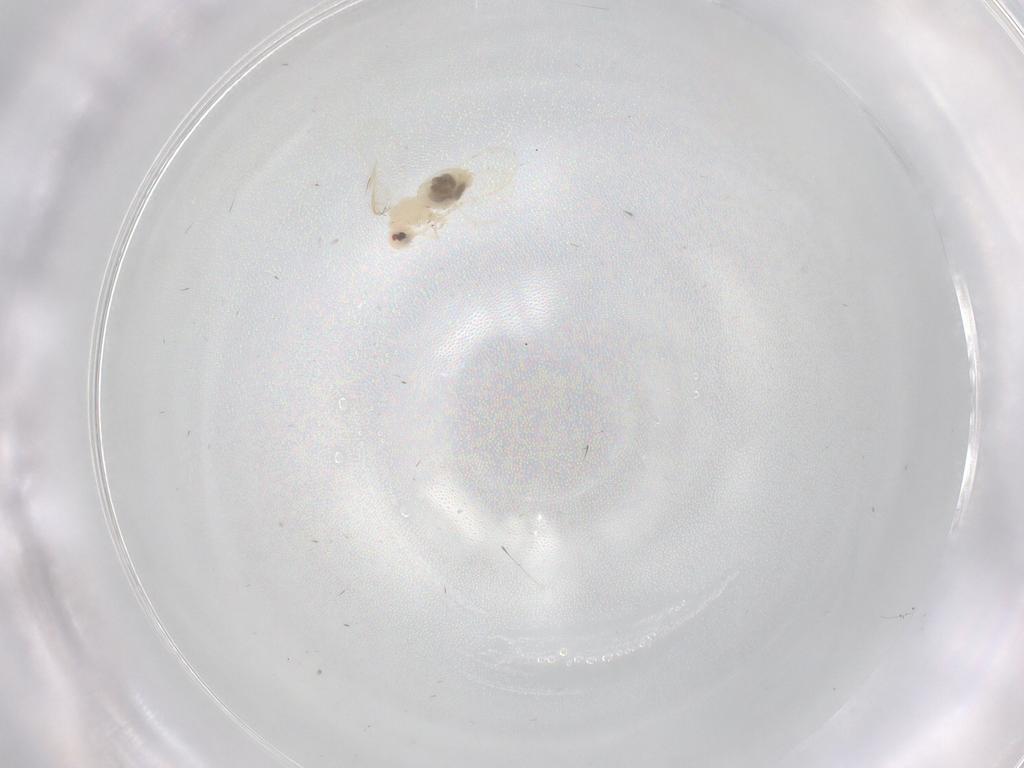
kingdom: Animalia
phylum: Arthropoda
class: Insecta
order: Hemiptera
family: Aleyrodidae
